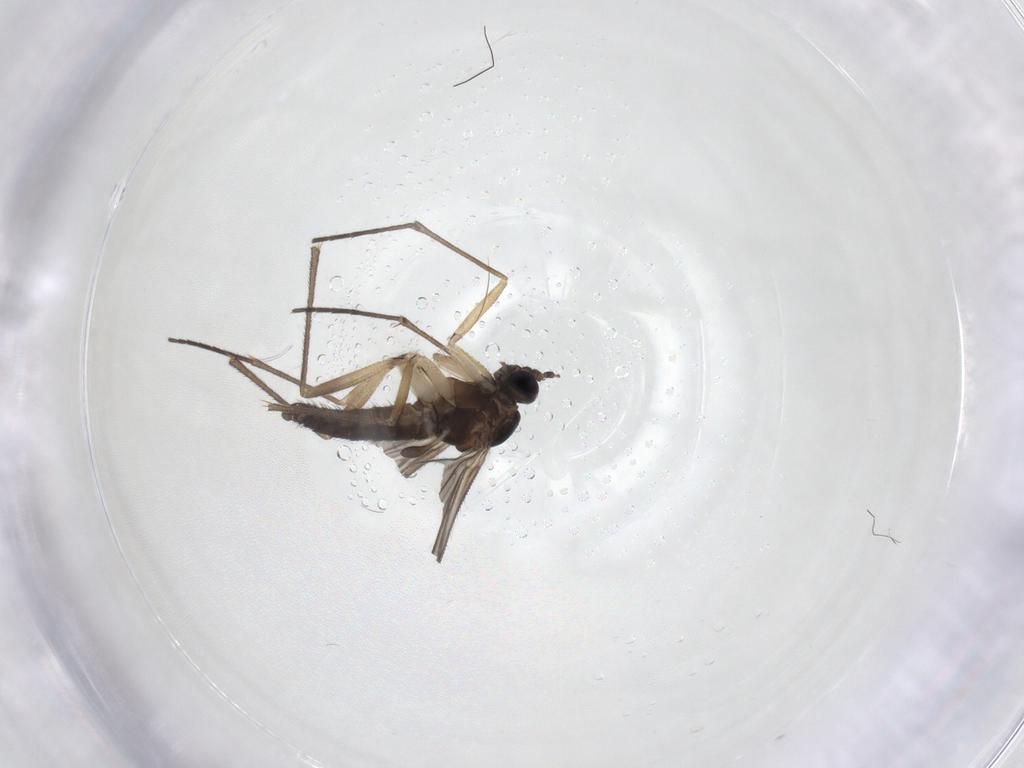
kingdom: Animalia
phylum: Arthropoda
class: Insecta
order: Diptera
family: Sciaridae
